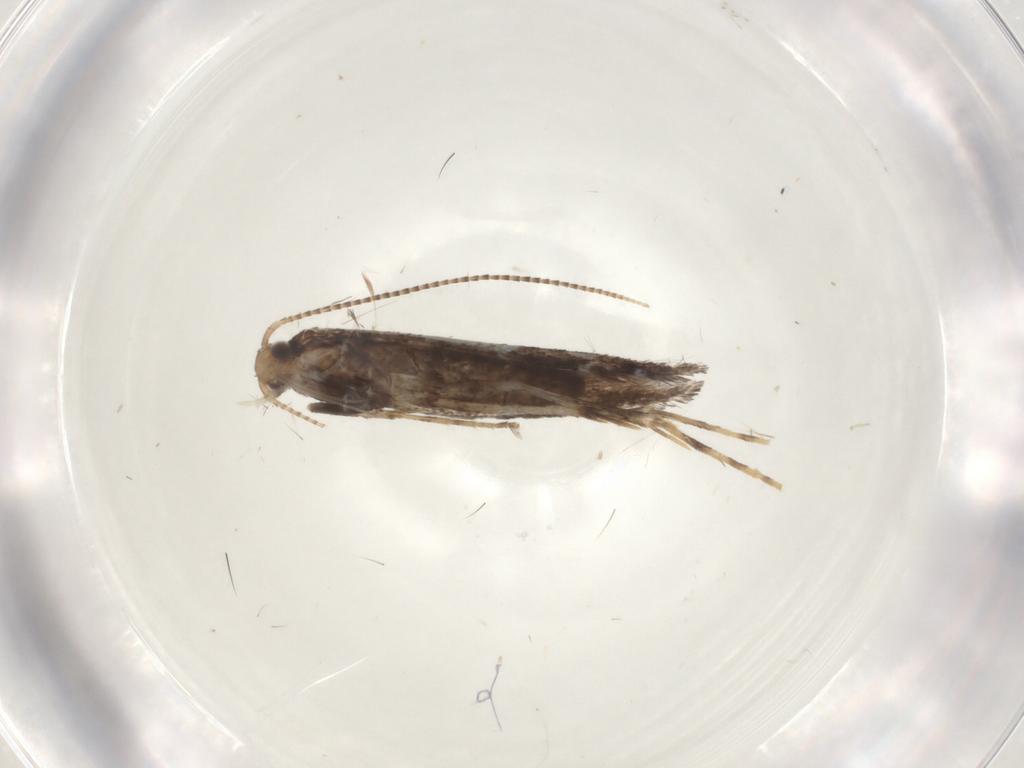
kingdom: Animalia
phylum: Arthropoda
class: Insecta
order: Lepidoptera
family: Gracillariidae
